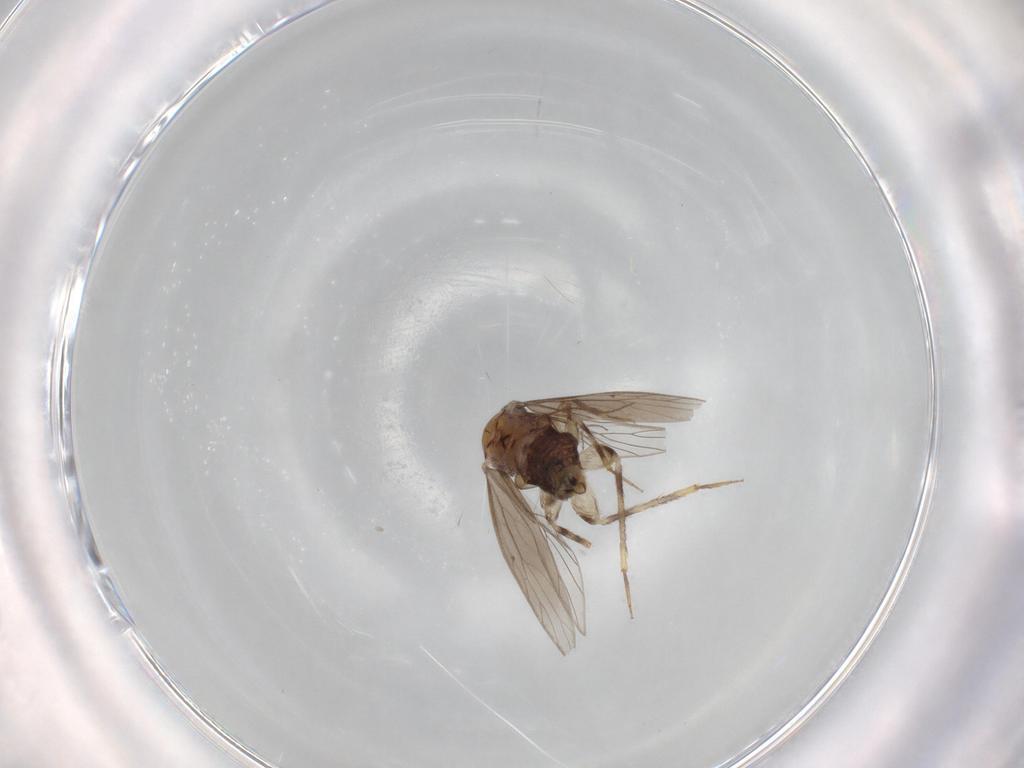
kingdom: Animalia
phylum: Arthropoda
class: Insecta
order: Psocodea
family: Lepidopsocidae
